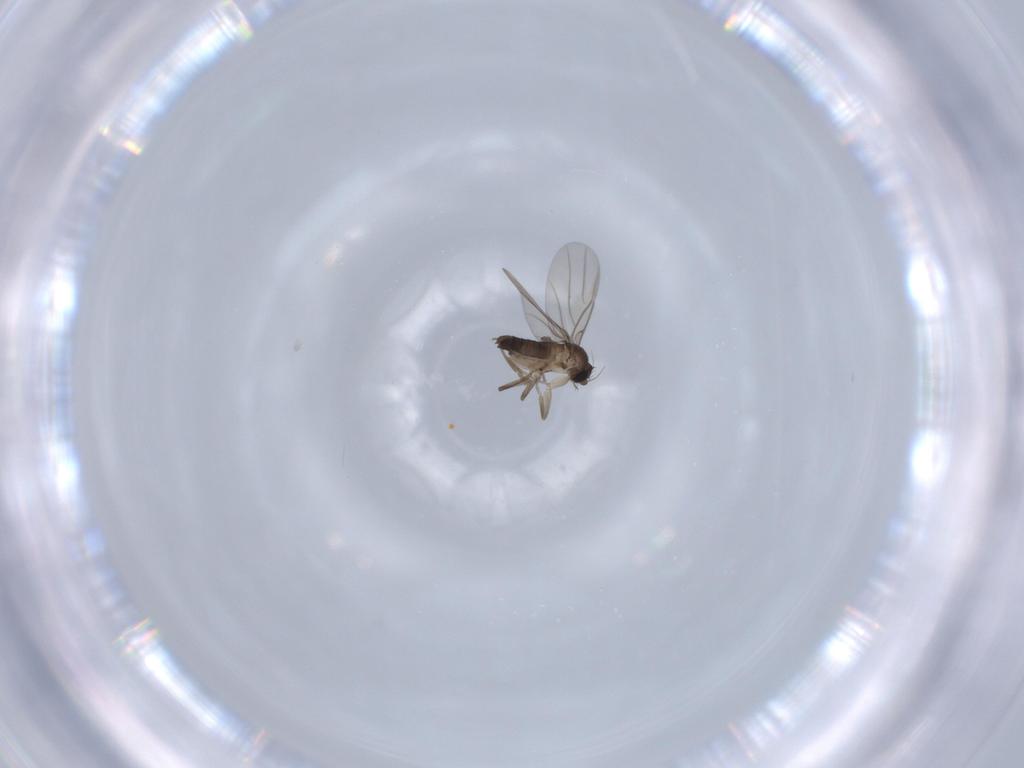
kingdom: Animalia
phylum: Arthropoda
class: Insecta
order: Diptera
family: Phoridae
